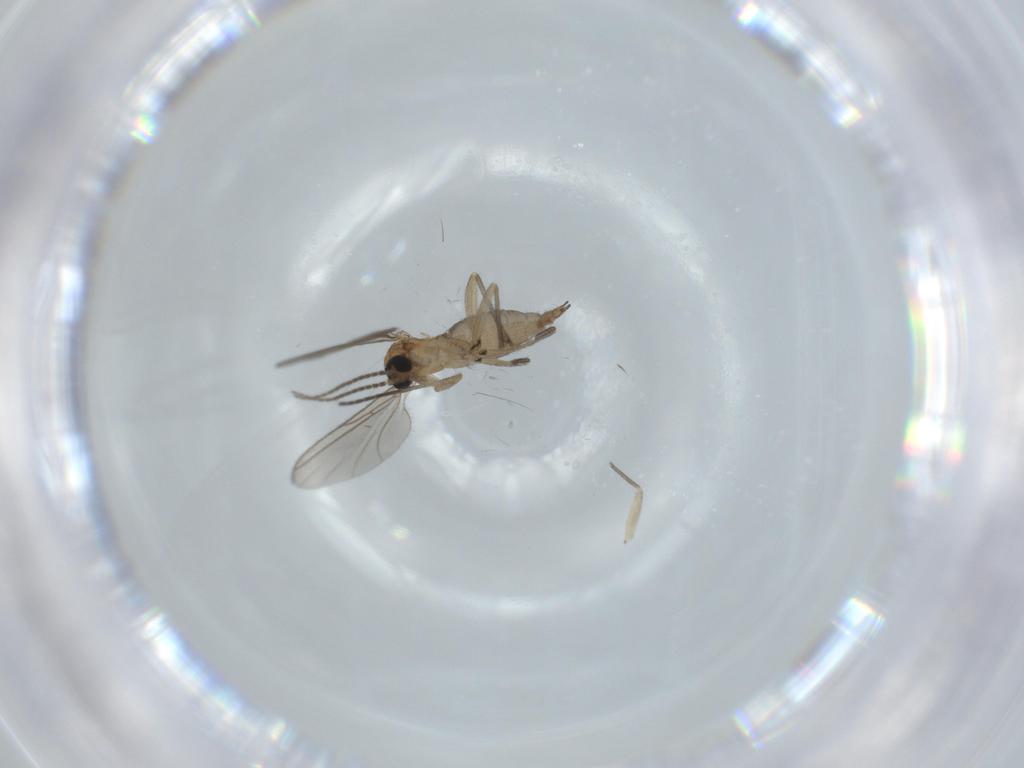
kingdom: Animalia
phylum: Arthropoda
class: Insecta
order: Diptera
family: Sciaridae
